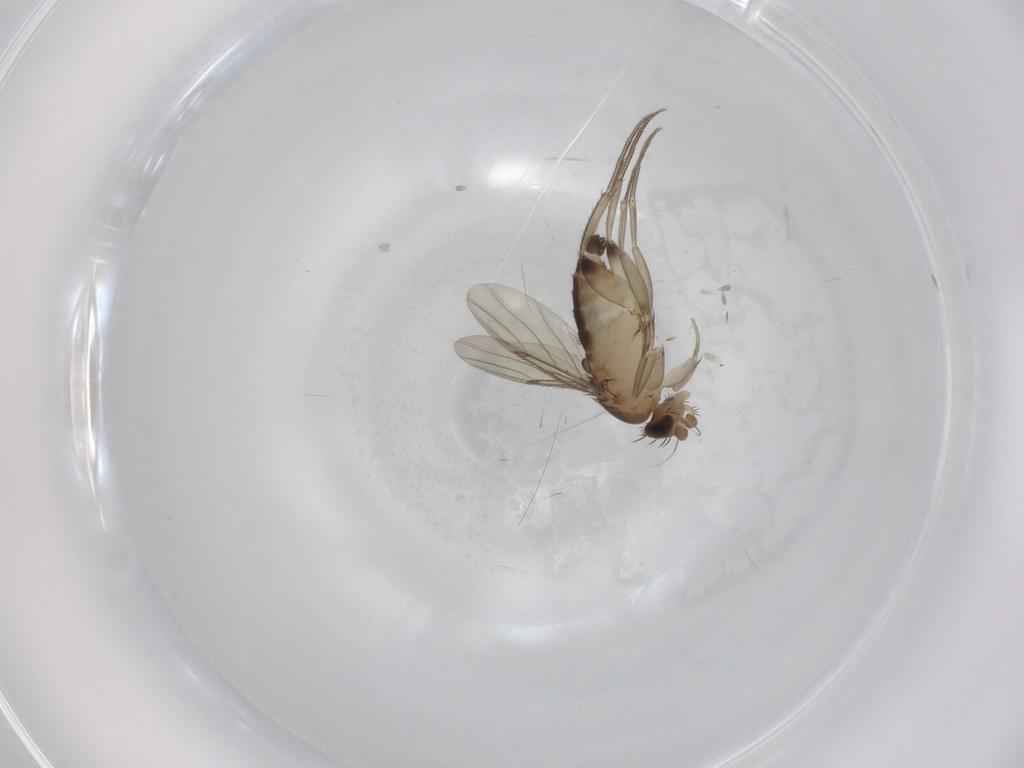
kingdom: Animalia
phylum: Arthropoda
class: Insecta
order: Diptera
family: Phoridae
